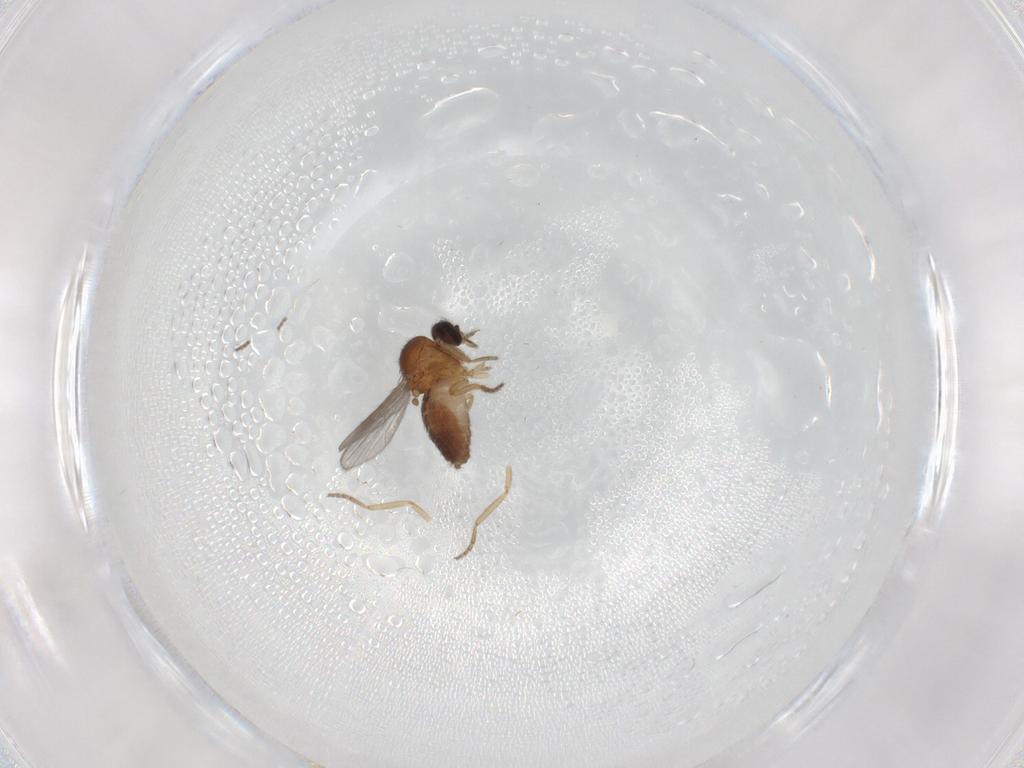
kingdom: Animalia
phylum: Arthropoda
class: Insecta
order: Diptera
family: Ceratopogonidae
